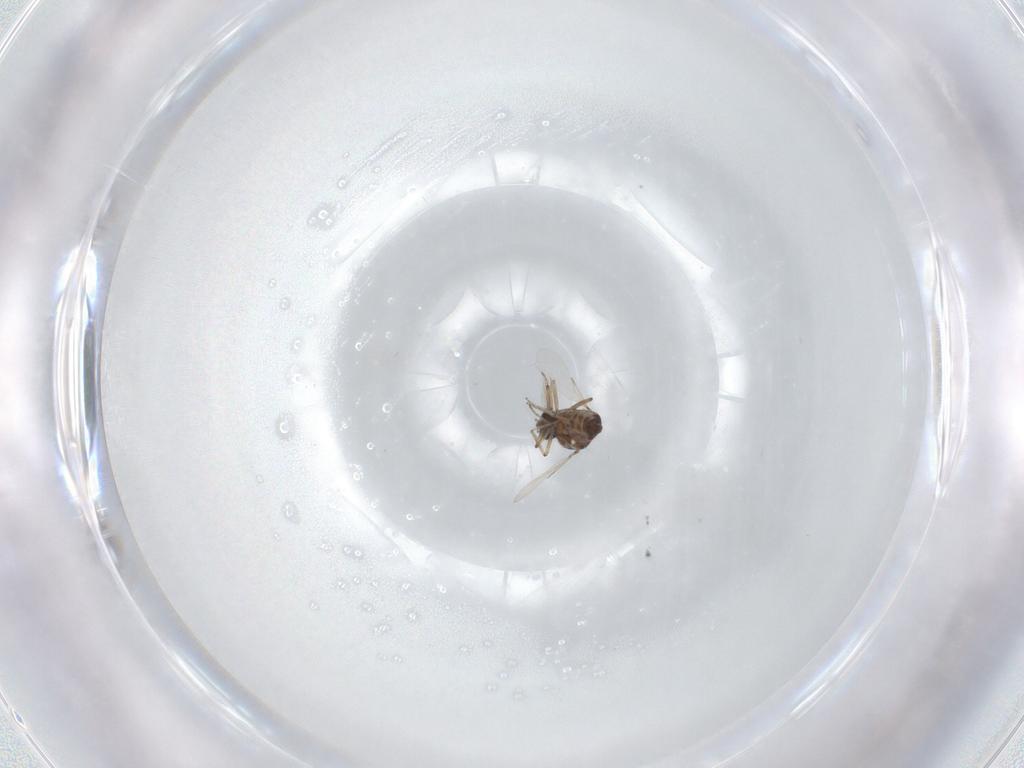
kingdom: Animalia
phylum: Arthropoda
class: Insecta
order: Diptera
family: Ceratopogonidae
